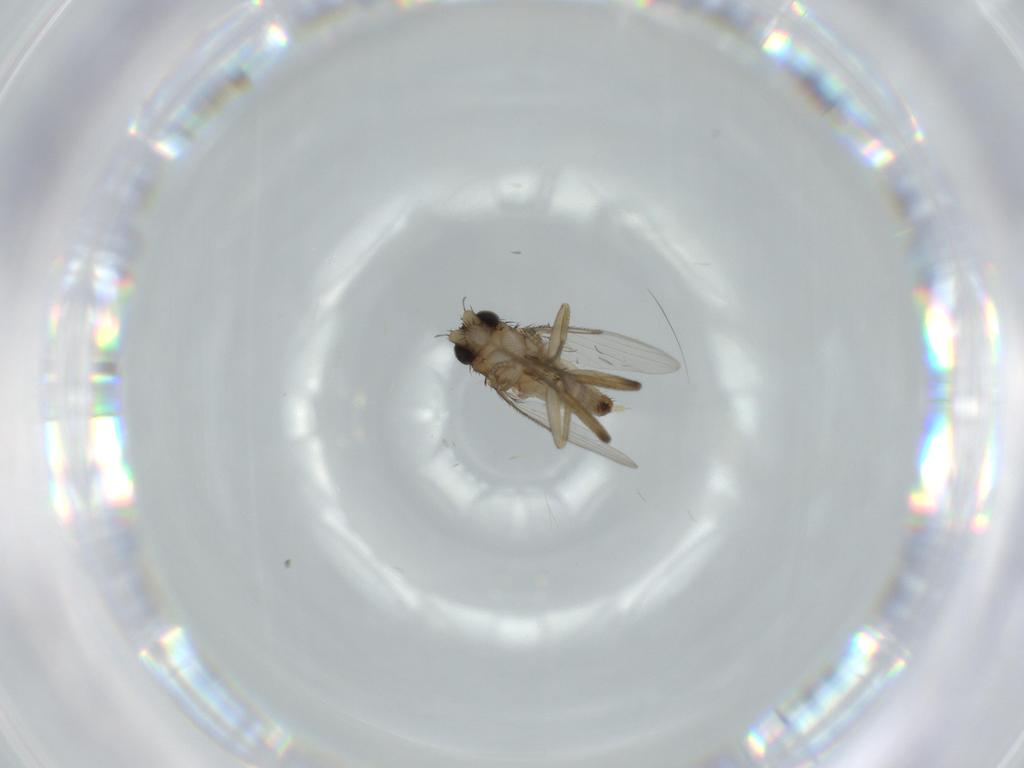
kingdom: Animalia
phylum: Arthropoda
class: Insecta
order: Diptera
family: Phoridae
